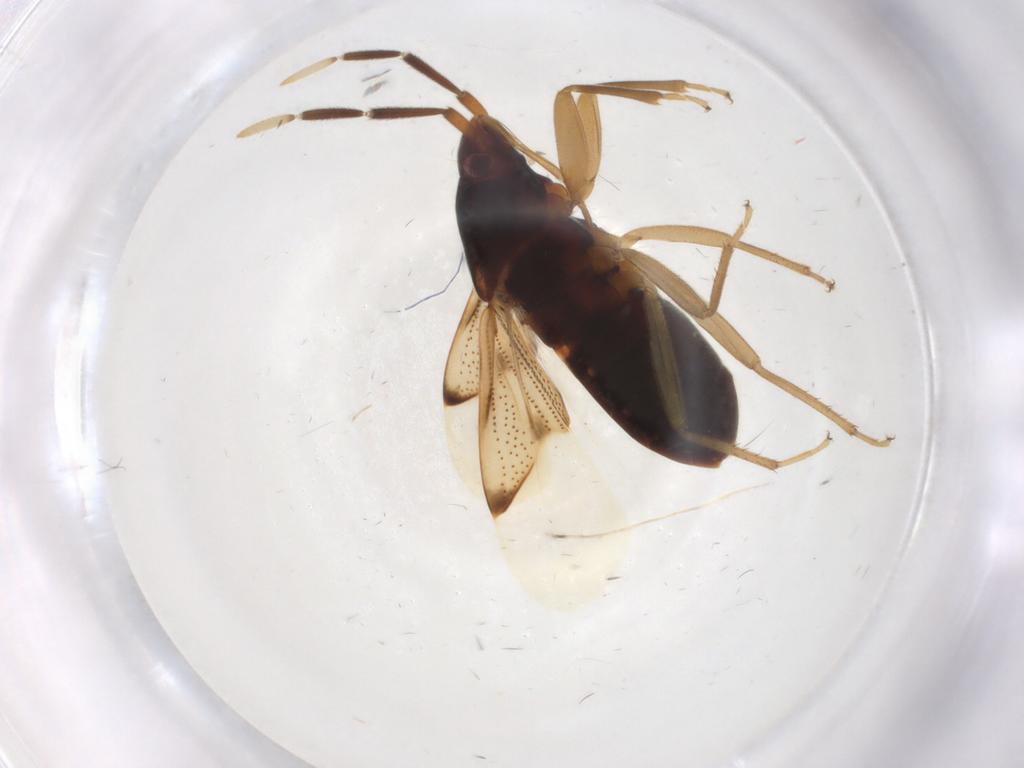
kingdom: Animalia
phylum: Arthropoda
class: Insecta
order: Hemiptera
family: Rhyparochromidae
